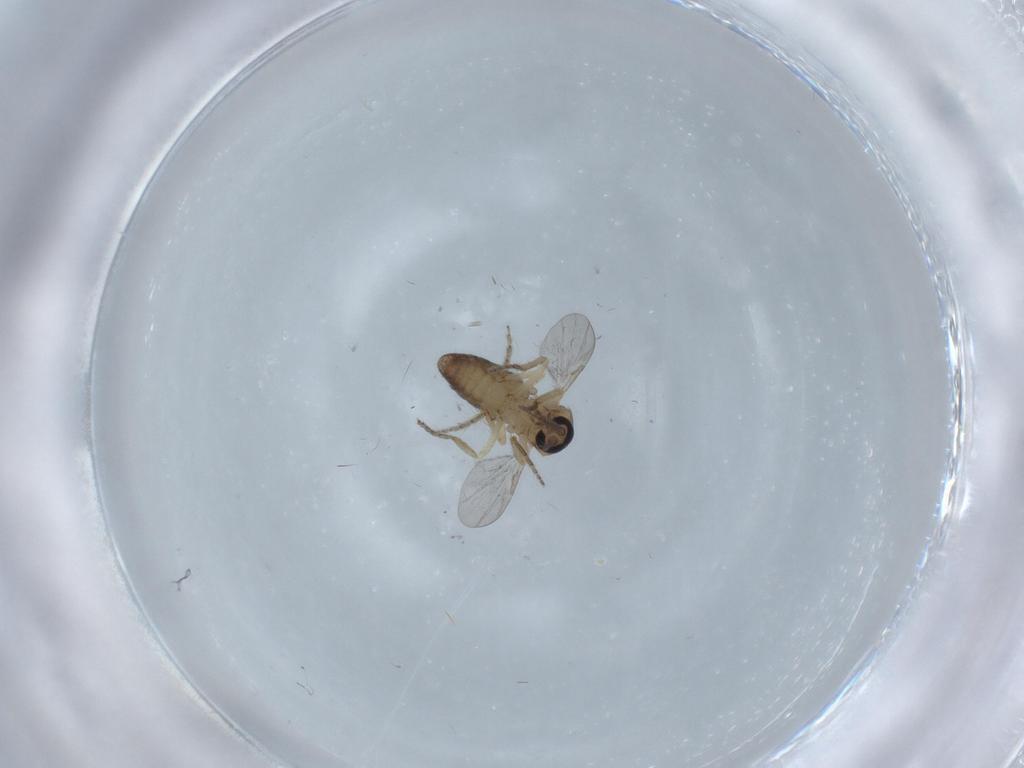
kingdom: Animalia
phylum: Arthropoda
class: Insecta
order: Diptera
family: Ceratopogonidae
